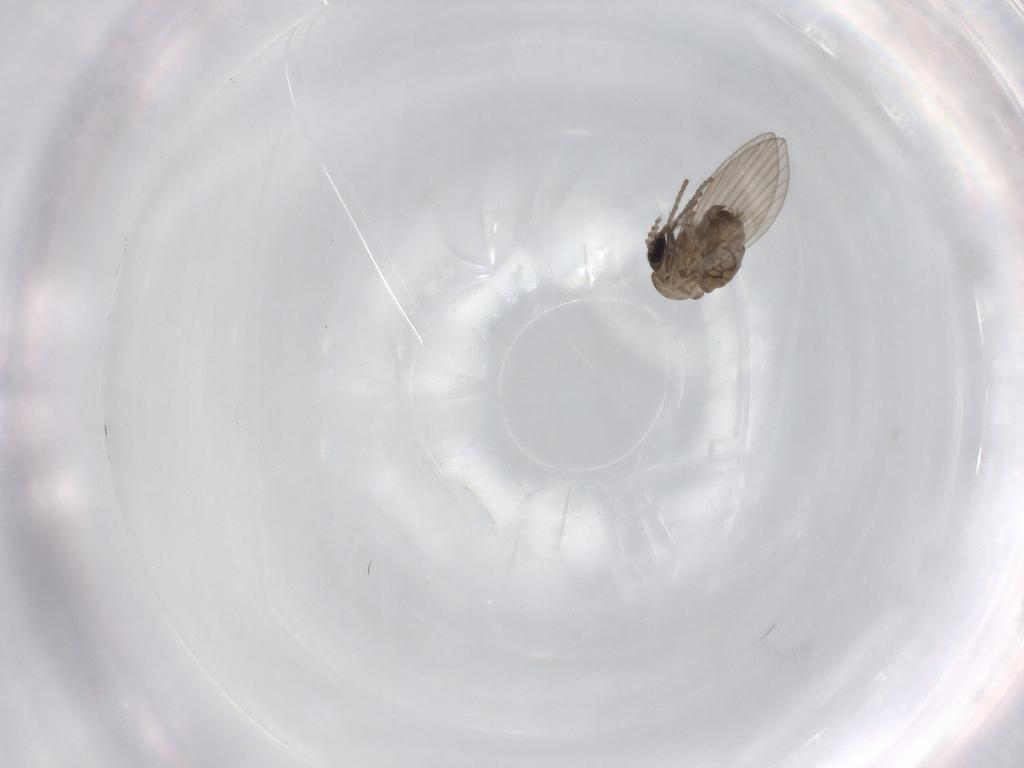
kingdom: Animalia
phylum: Arthropoda
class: Insecta
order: Diptera
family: Psychodidae
